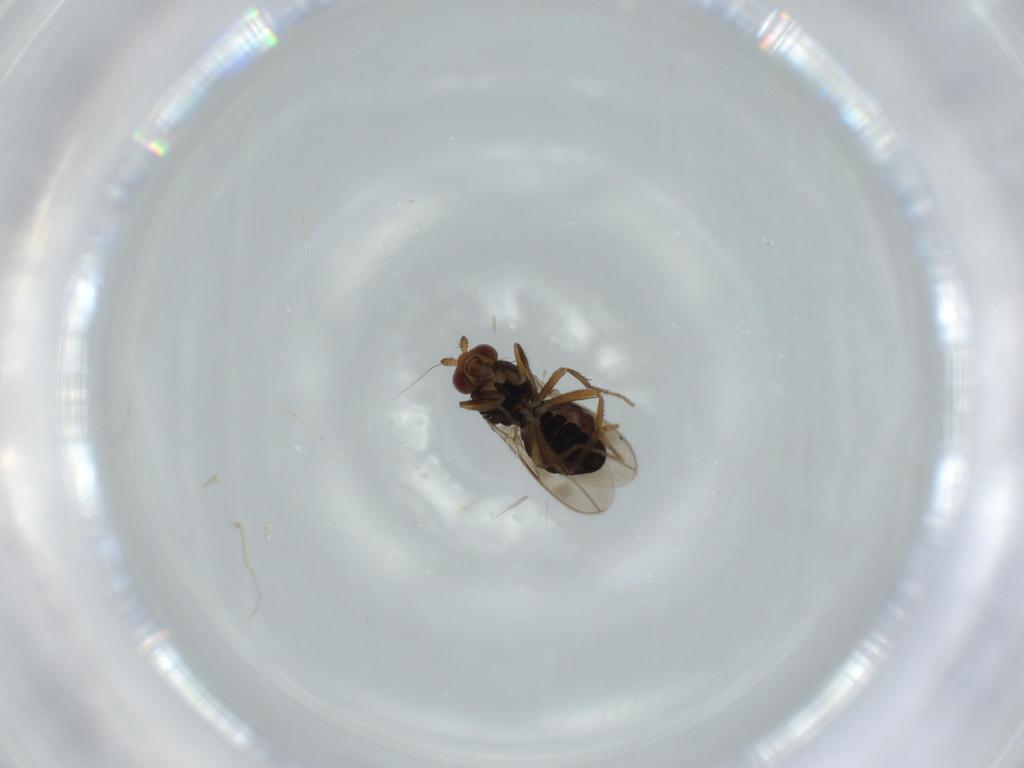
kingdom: Animalia
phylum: Arthropoda
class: Insecta
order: Diptera
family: Sphaeroceridae
